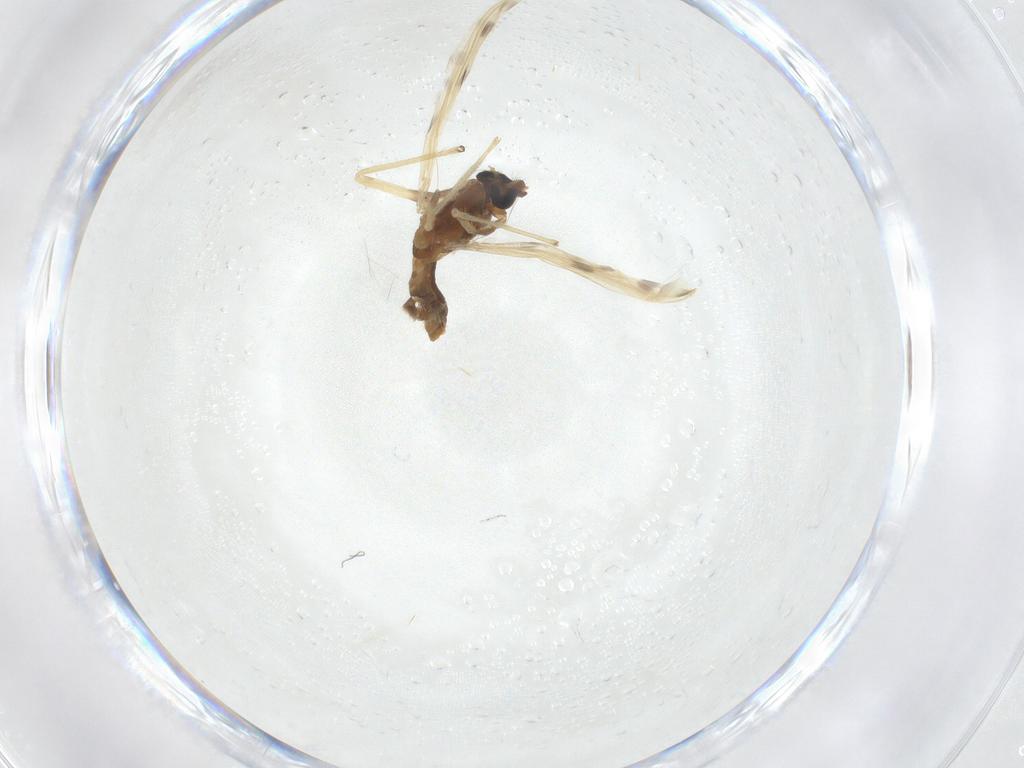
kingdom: Animalia
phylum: Arthropoda
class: Insecta
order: Diptera
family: Chironomidae
